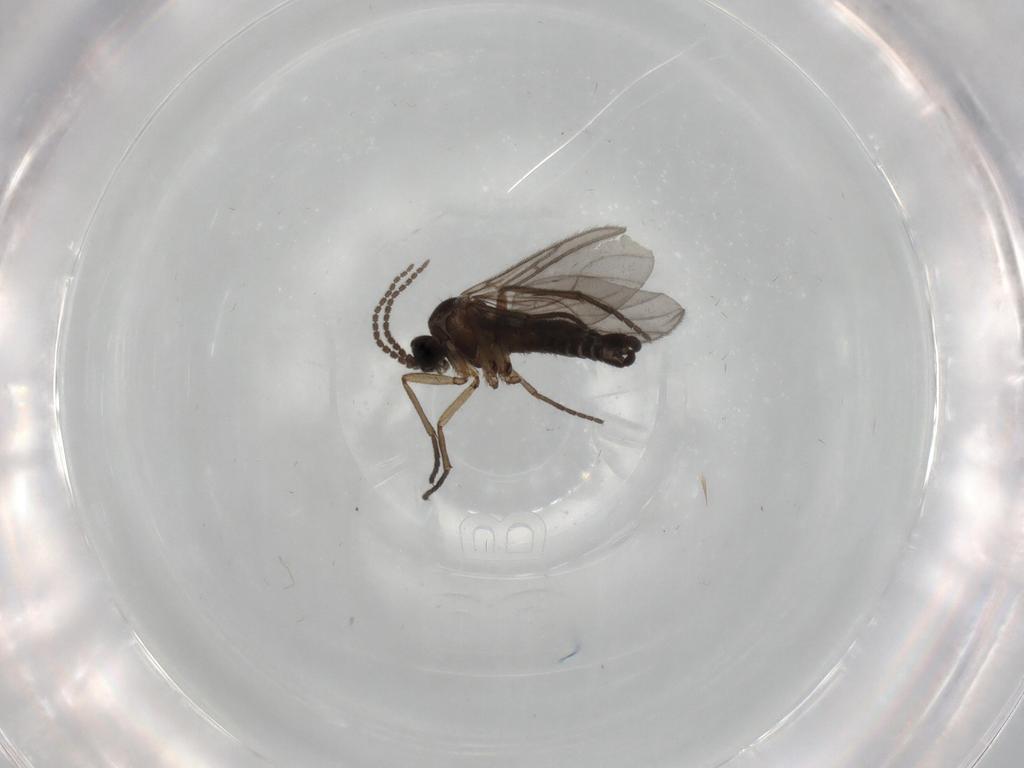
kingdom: Animalia
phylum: Arthropoda
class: Insecta
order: Diptera
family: Sciaridae
